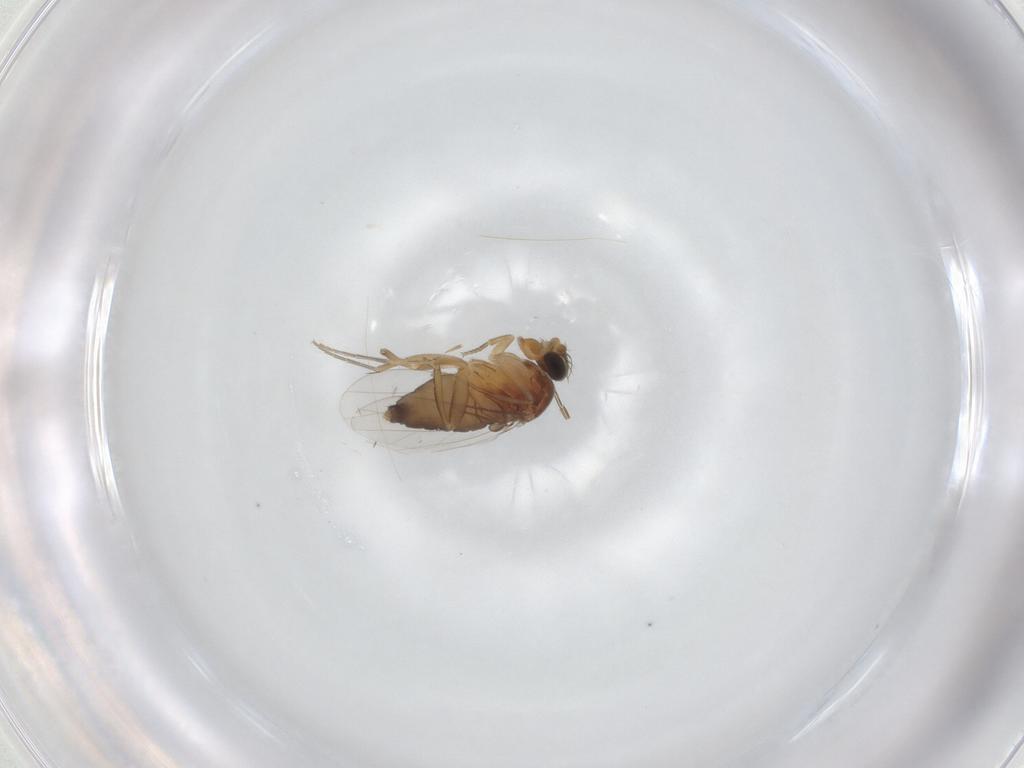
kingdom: Animalia
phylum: Arthropoda
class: Insecta
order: Diptera
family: Phoridae
